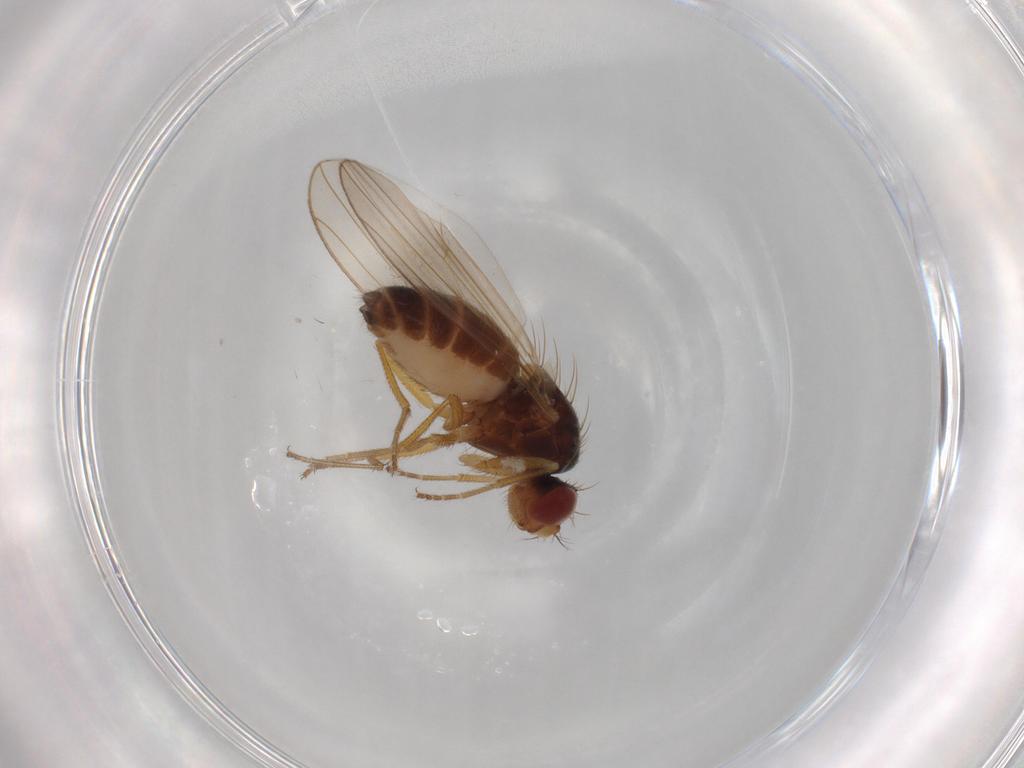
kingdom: Animalia
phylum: Arthropoda
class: Insecta
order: Diptera
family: Drosophilidae
